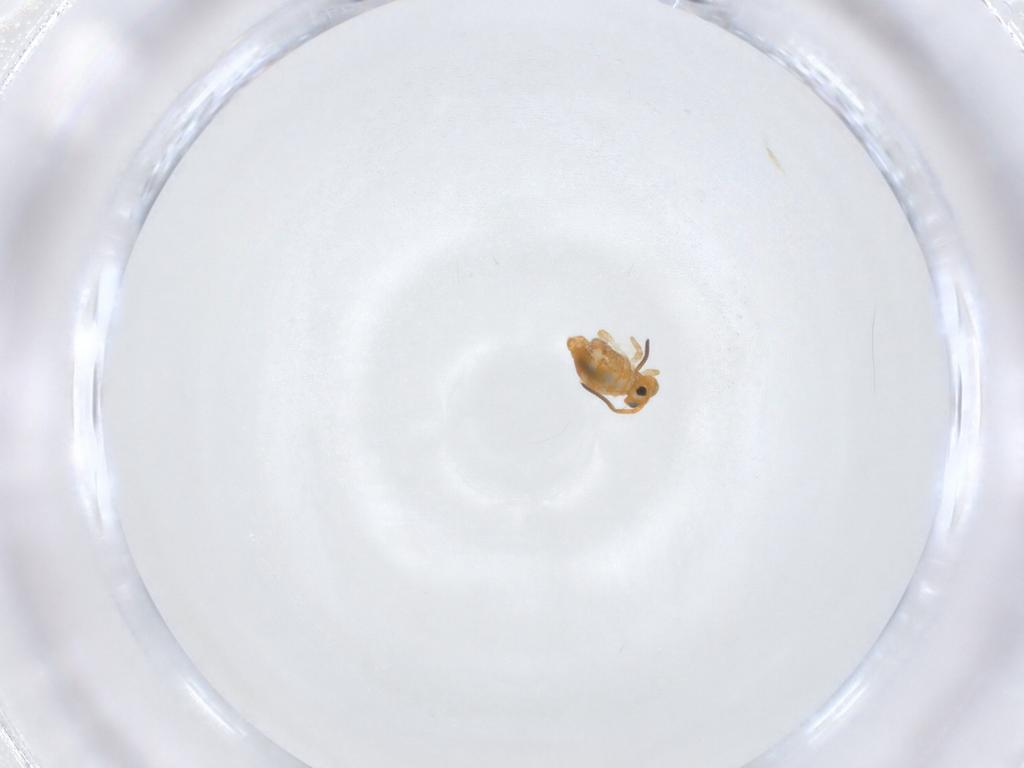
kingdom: Animalia
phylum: Arthropoda
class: Collembola
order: Symphypleona
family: Katiannidae
